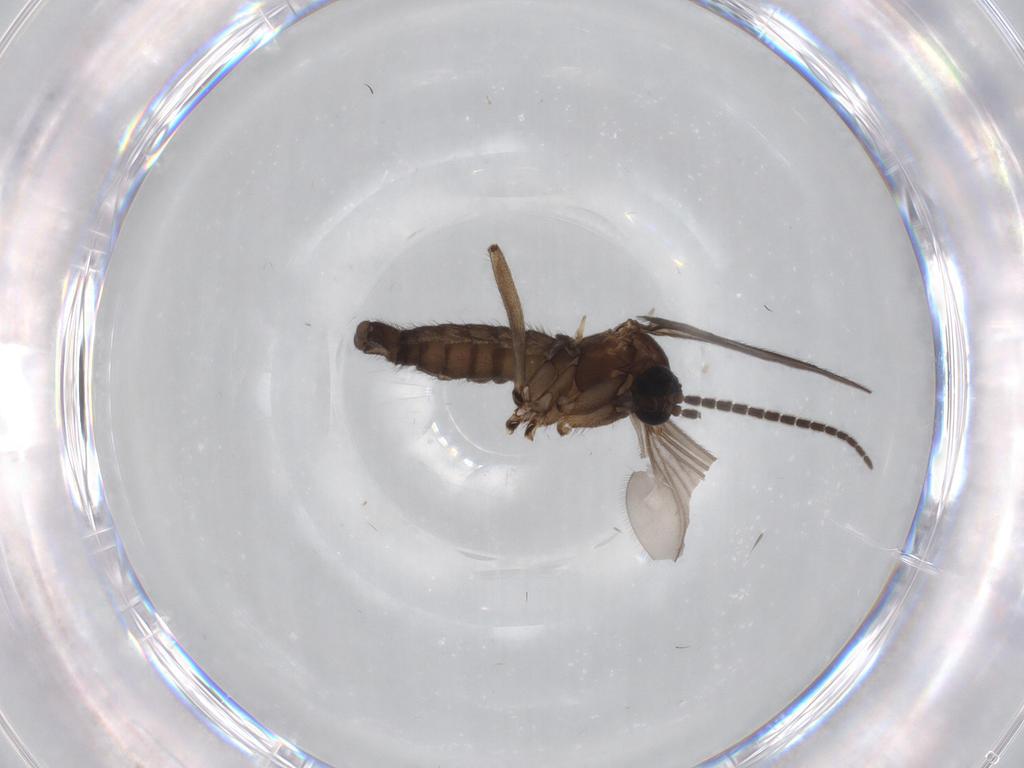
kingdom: Animalia
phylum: Arthropoda
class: Insecta
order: Diptera
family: Sciaridae
